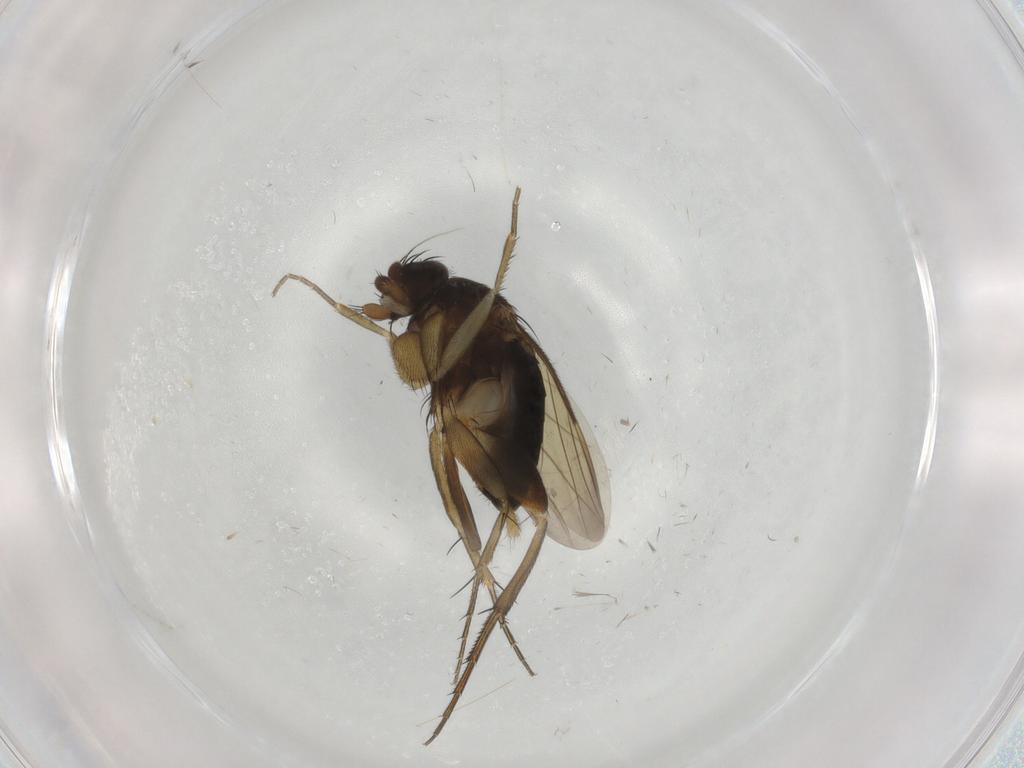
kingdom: Animalia
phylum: Arthropoda
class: Insecta
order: Diptera
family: Phoridae
